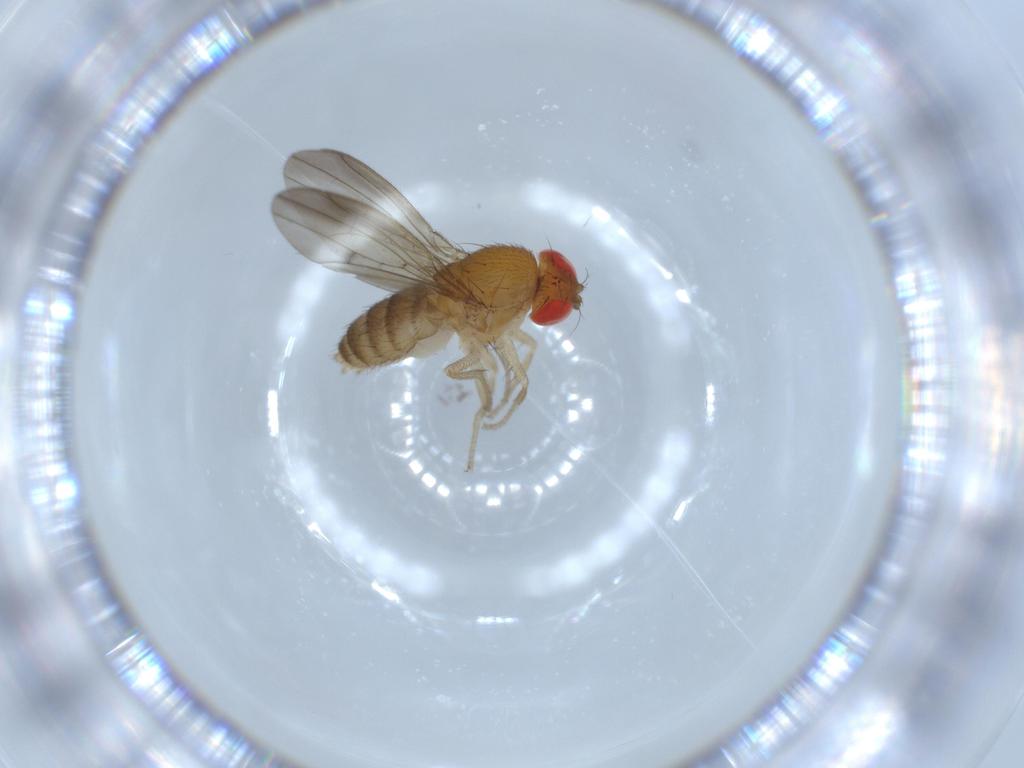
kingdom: Animalia
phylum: Arthropoda
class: Insecta
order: Diptera
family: Drosophilidae
